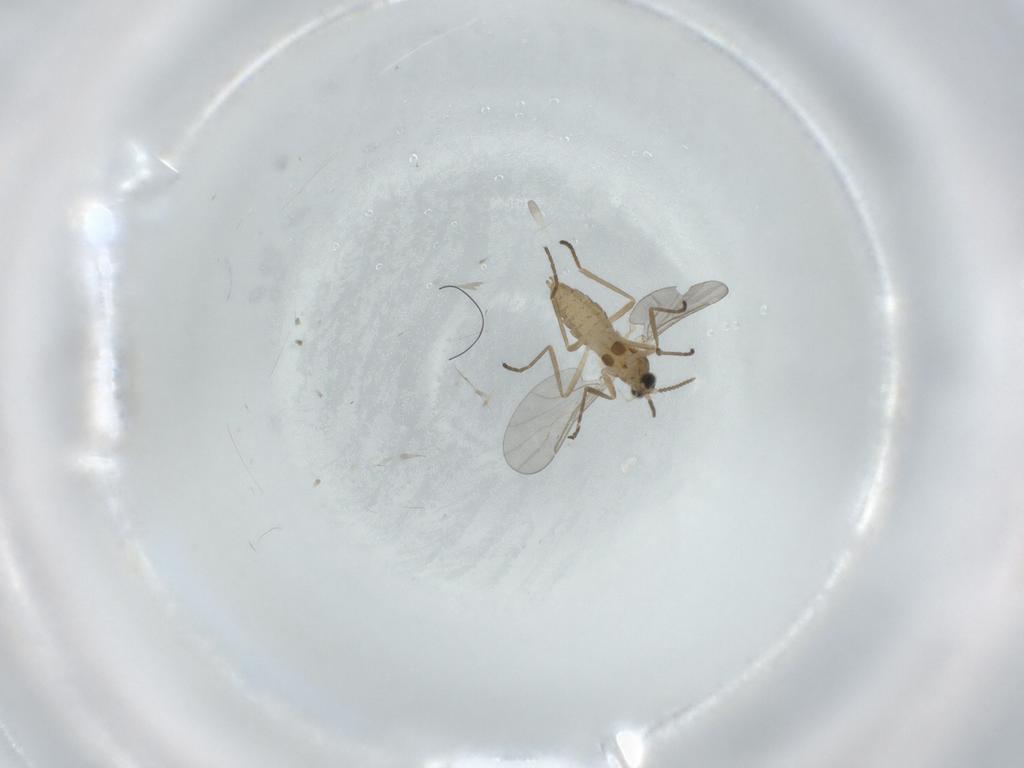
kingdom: Animalia
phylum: Arthropoda
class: Insecta
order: Diptera
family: Cecidomyiidae
